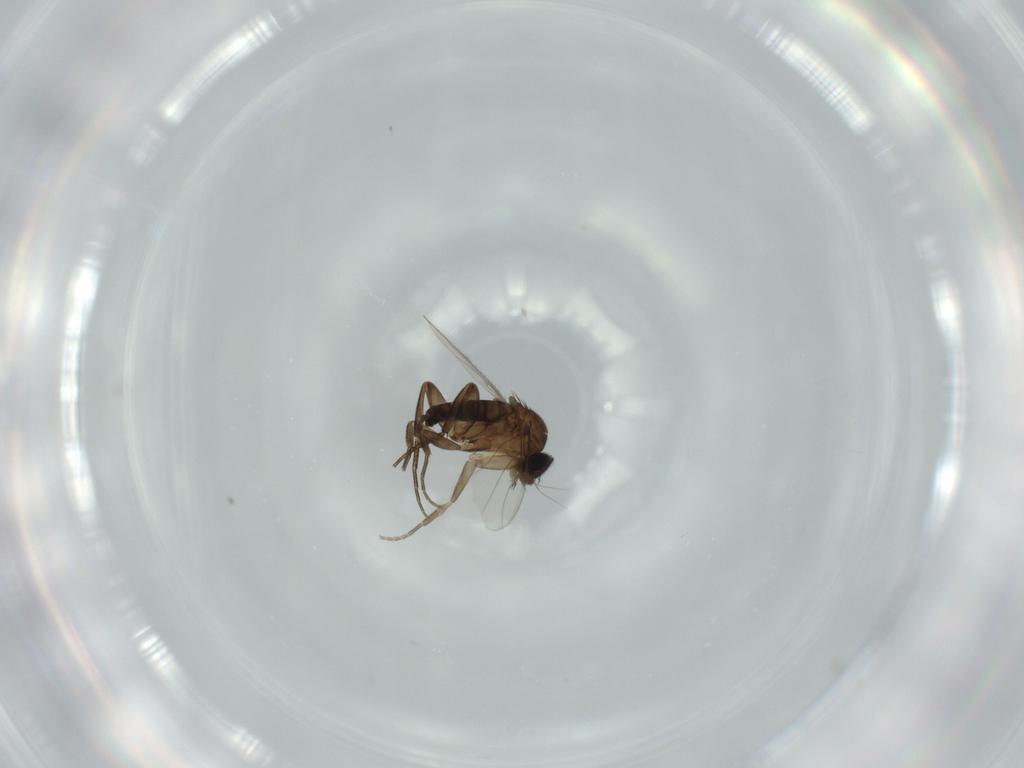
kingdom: Animalia
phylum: Arthropoda
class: Insecta
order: Diptera
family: Phoridae
